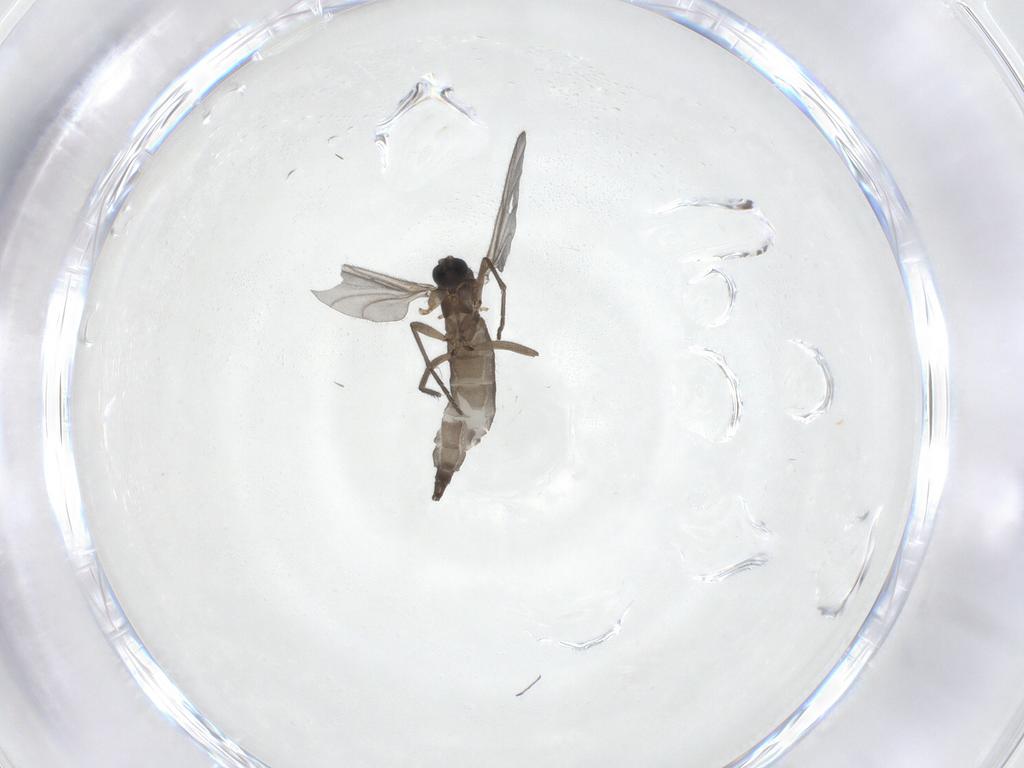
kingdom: Animalia
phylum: Arthropoda
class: Insecta
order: Diptera
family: Sciaridae
